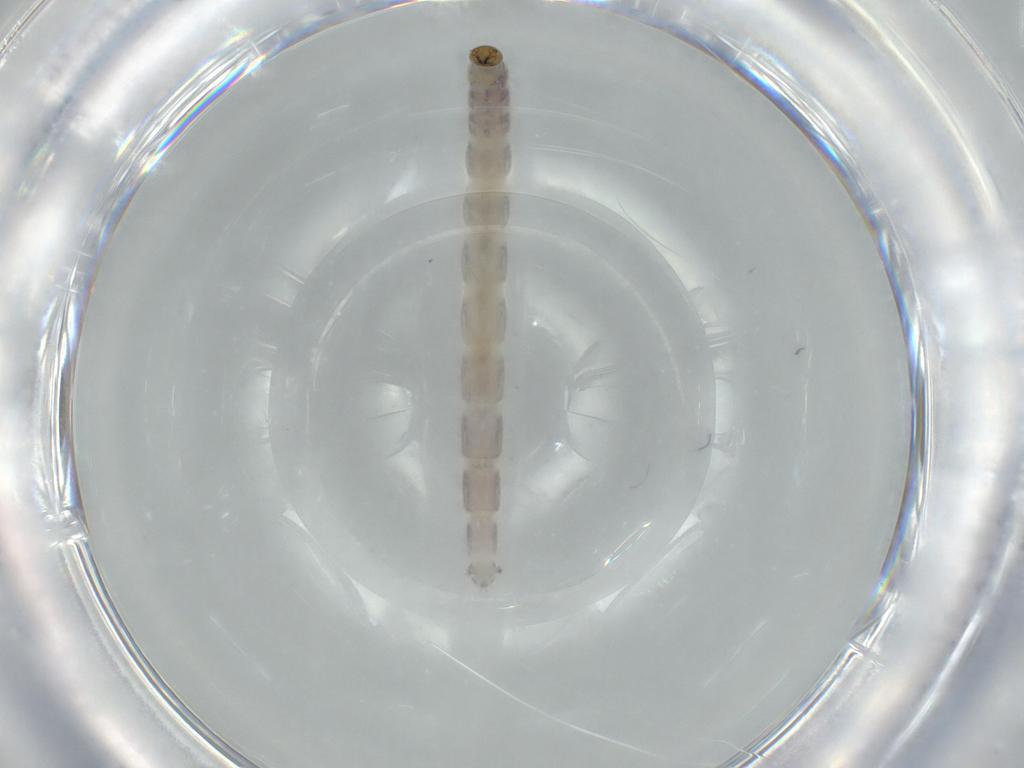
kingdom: Animalia
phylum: Arthropoda
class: Insecta
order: Diptera
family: Chironomidae
